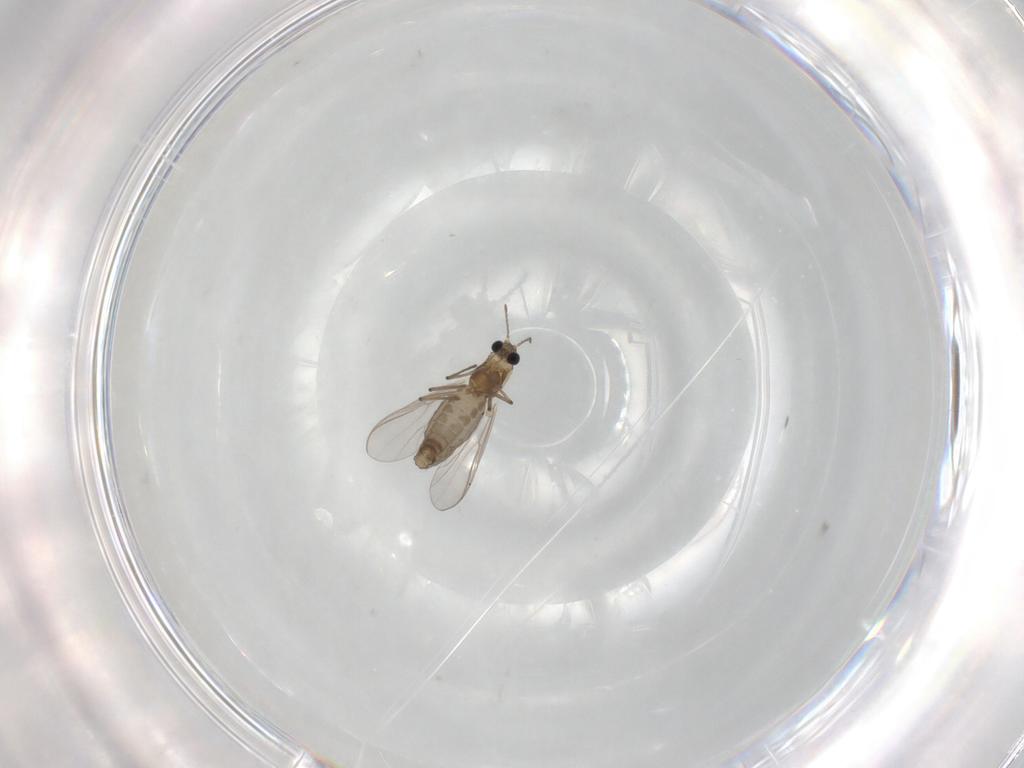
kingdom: Animalia
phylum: Arthropoda
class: Insecta
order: Diptera
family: Chironomidae
